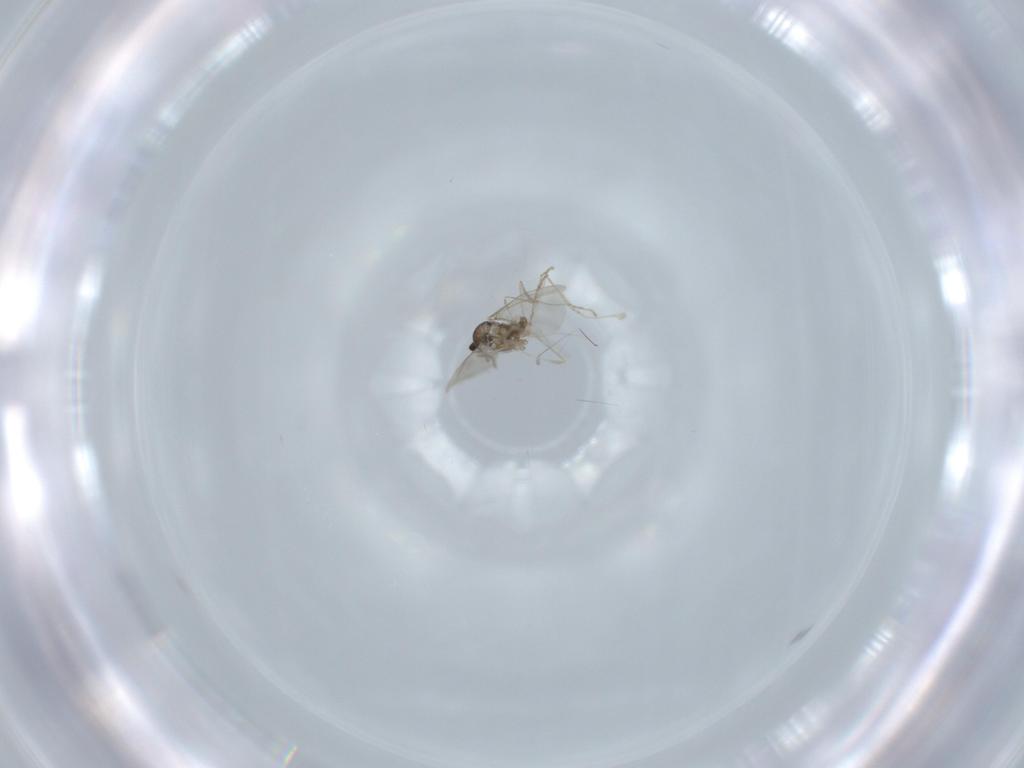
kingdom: Animalia
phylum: Arthropoda
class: Insecta
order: Diptera
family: Cecidomyiidae
